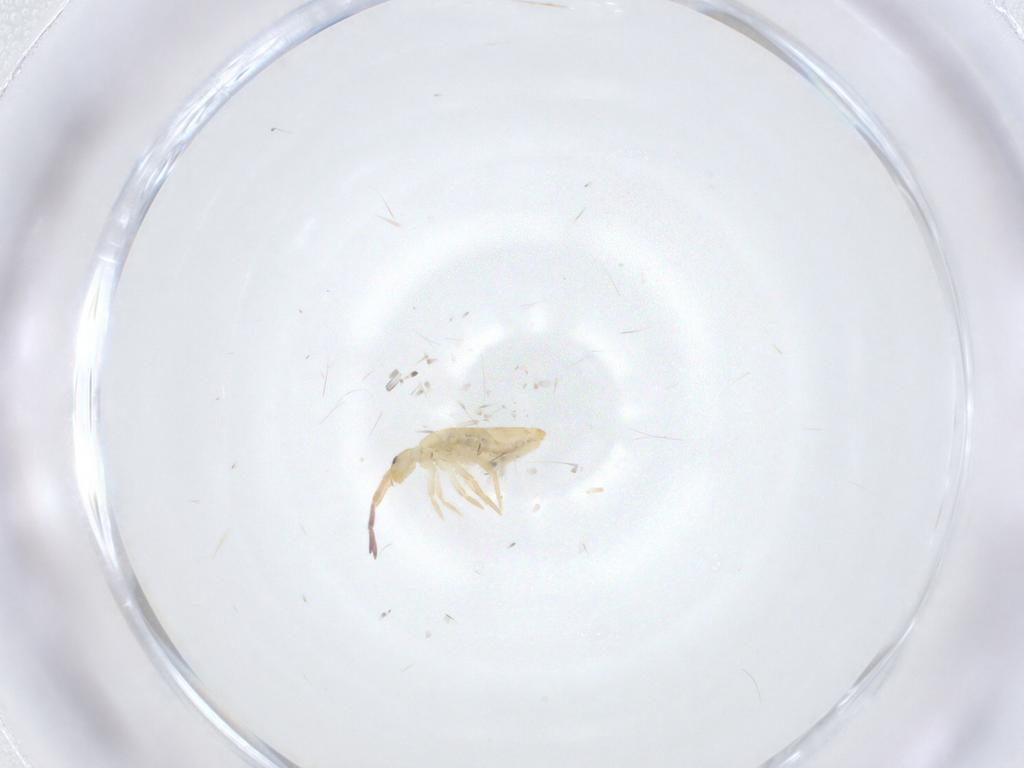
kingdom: Animalia
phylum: Arthropoda
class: Collembola
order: Entomobryomorpha
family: Entomobryidae
